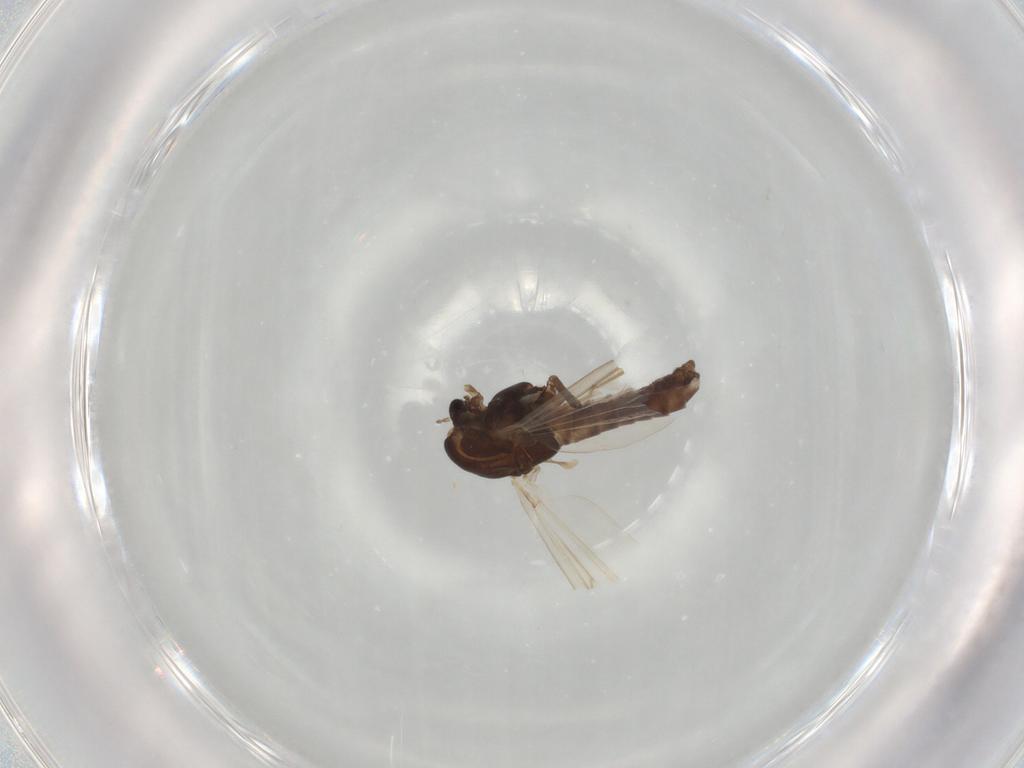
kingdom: Animalia
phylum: Arthropoda
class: Insecta
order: Diptera
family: Chironomidae
